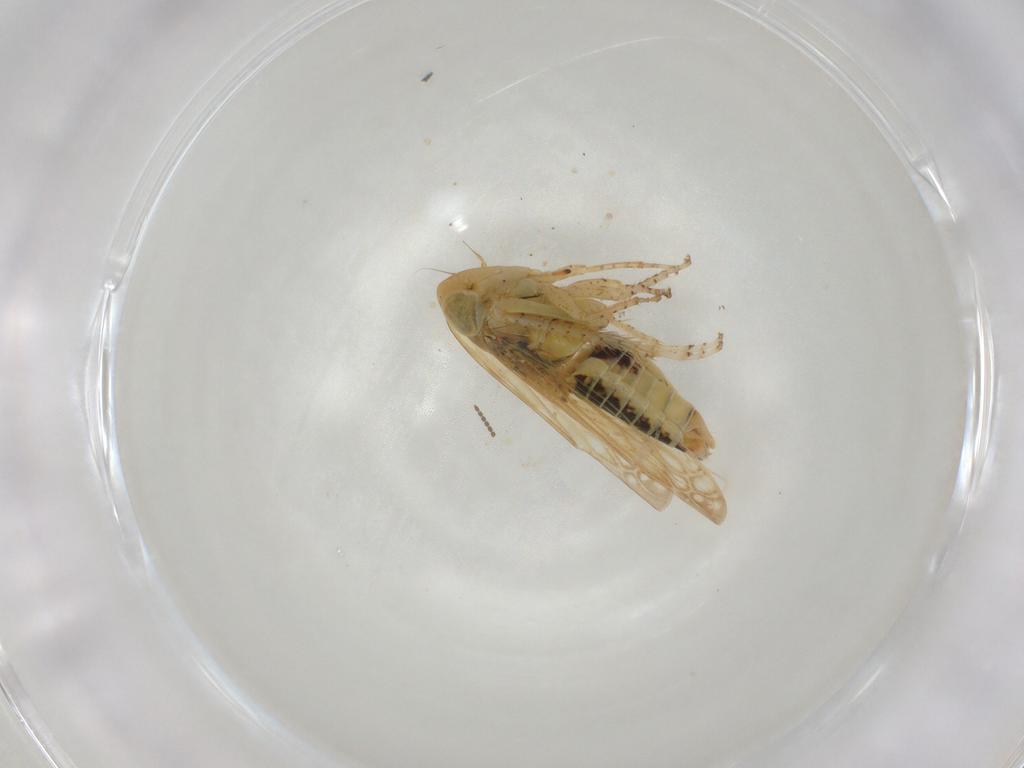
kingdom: Animalia
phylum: Arthropoda
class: Insecta
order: Hemiptera
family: Cicadellidae
